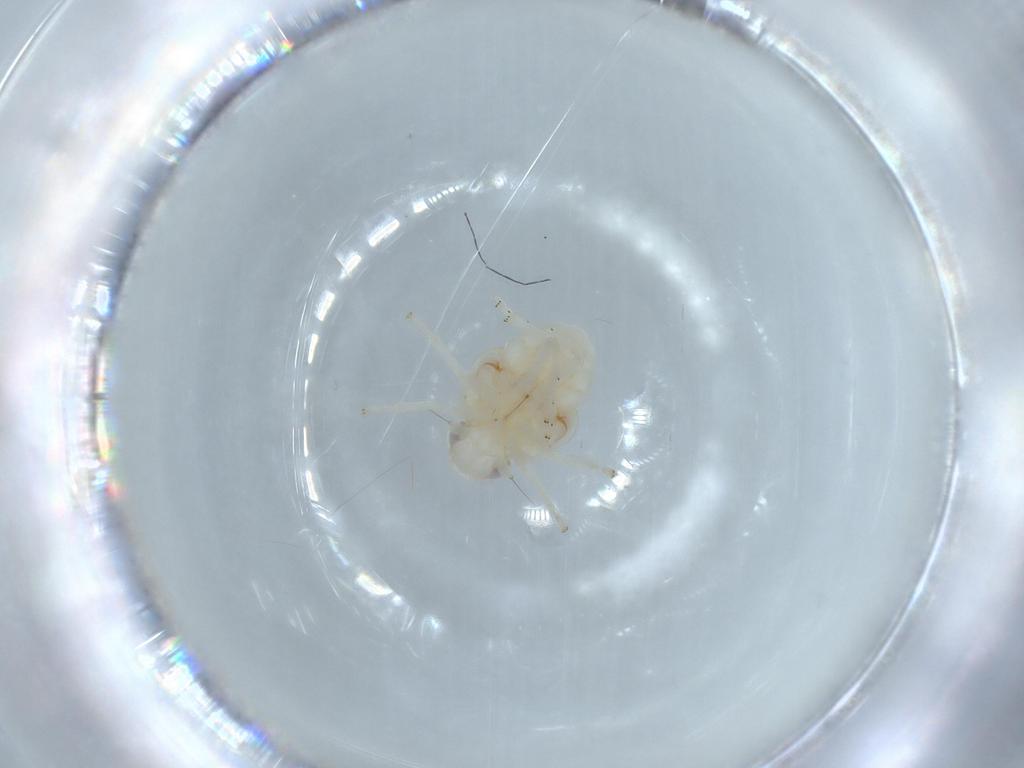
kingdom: Animalia
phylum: Arthropoda
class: Insecta
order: Hemiptera
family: Nogodinidae
